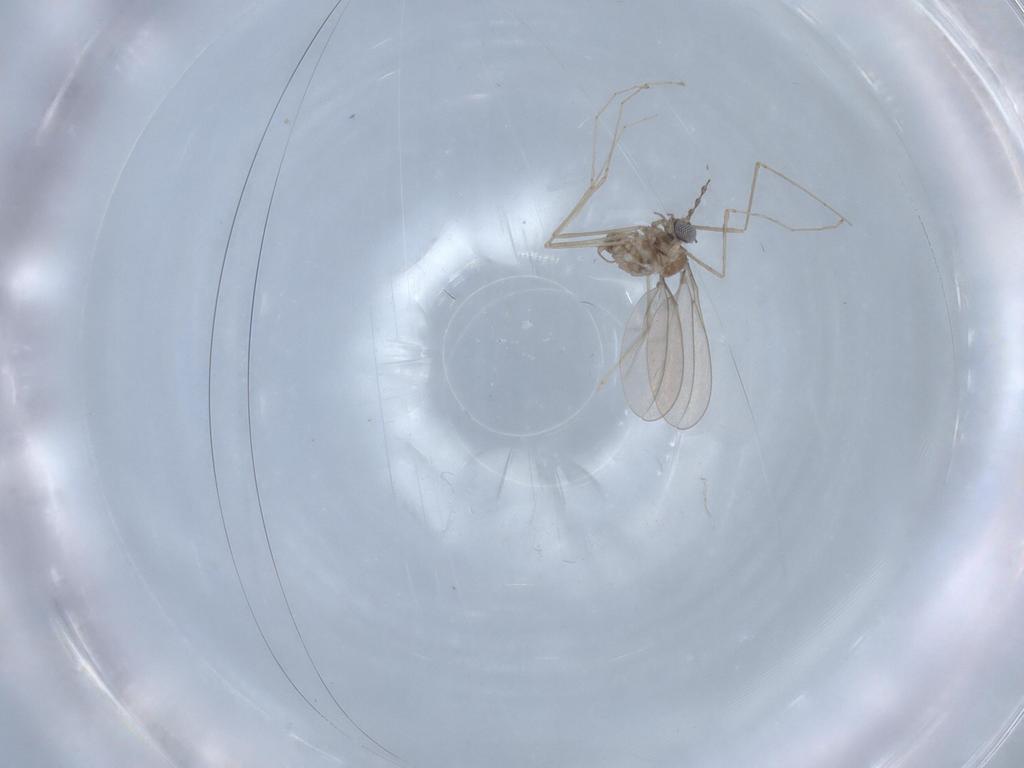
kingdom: Animalia
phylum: Arthropoda
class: Insecta
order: Diptera
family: Cecidomyiidae
